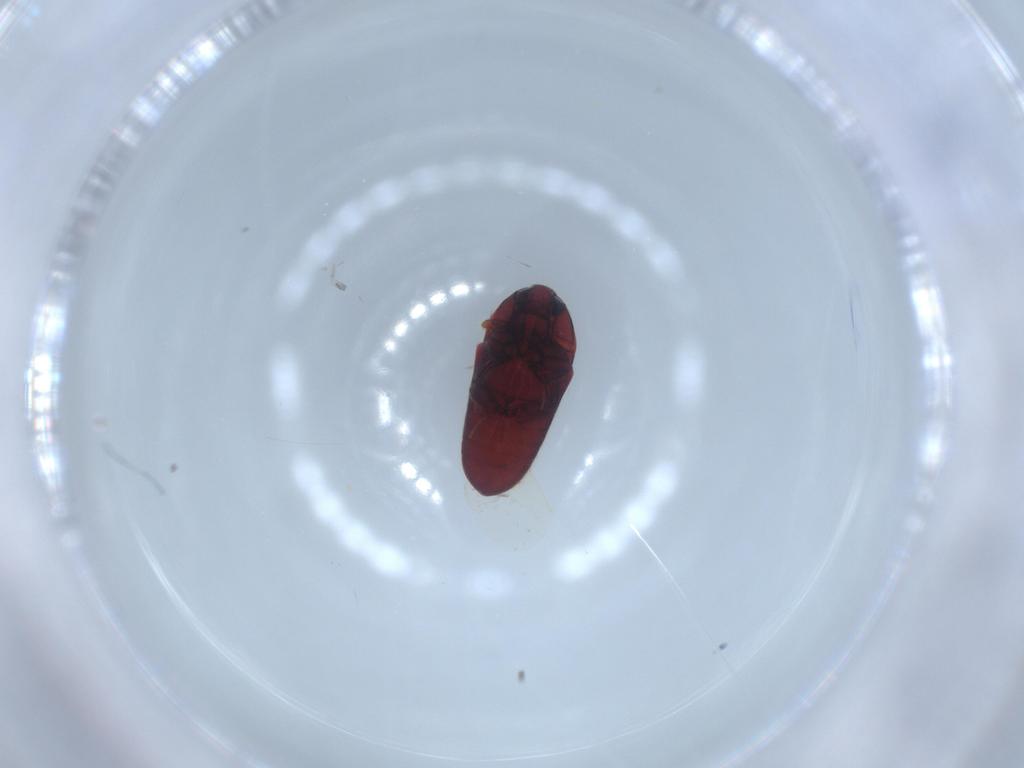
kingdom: Animalia
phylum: Arthropoda
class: Insecta
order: Coleoptera
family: Throscidae
